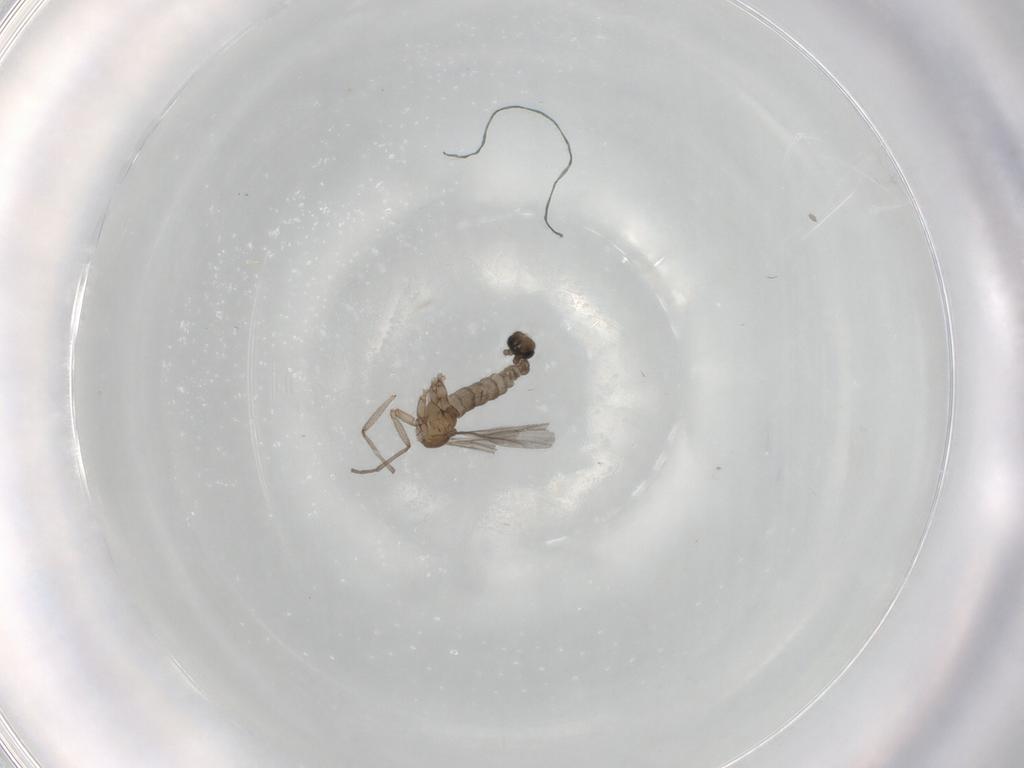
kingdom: Animalia
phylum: Arthropoda
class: Insecta
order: Diptera
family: Sciaridae
